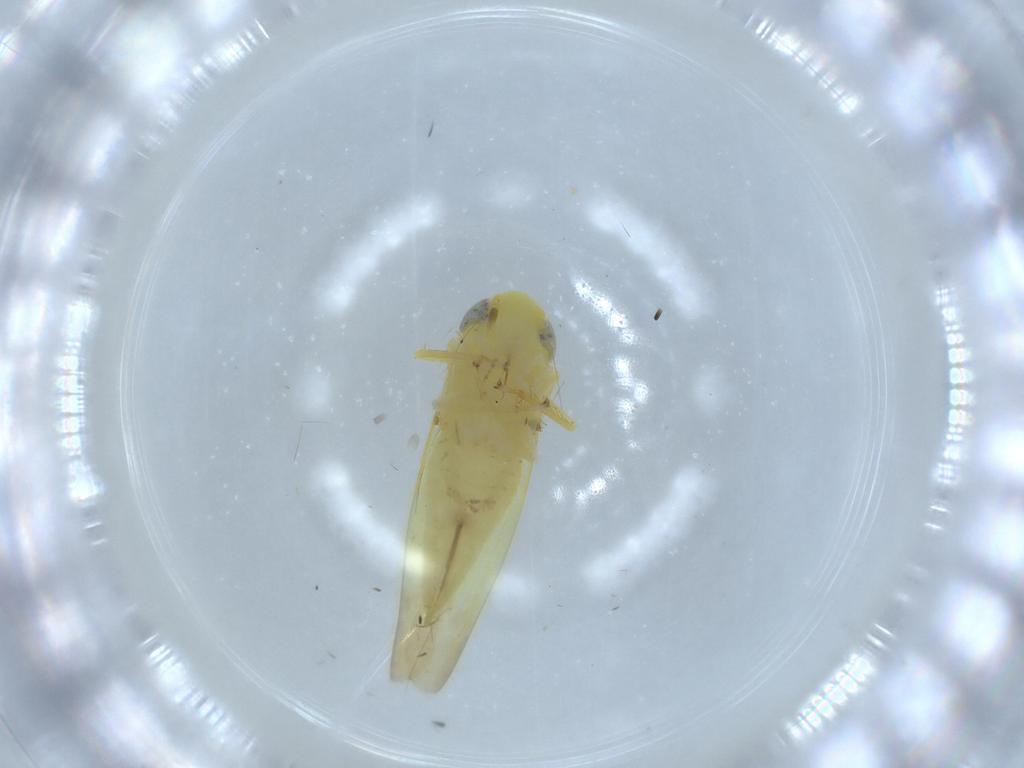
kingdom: Animalia
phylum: Arthropoda
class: Insecta
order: Hemiptera
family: Cicadellidae
